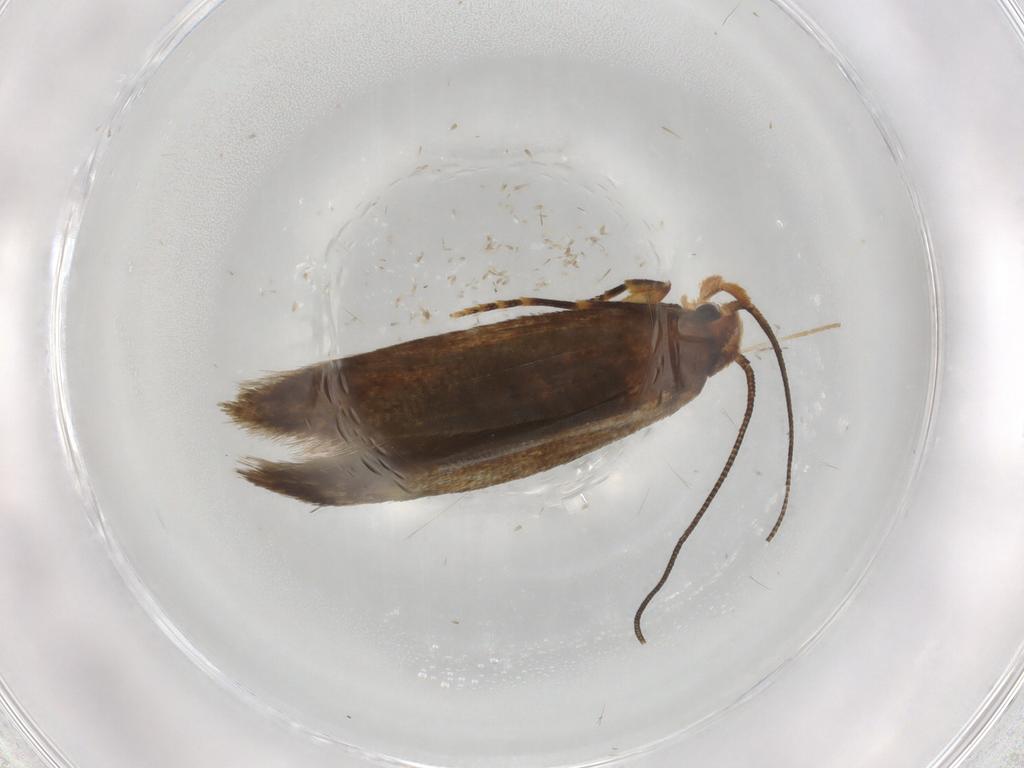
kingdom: Animalia
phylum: Arthropoda
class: Insecta
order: Lepidoptera
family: Tineidae
